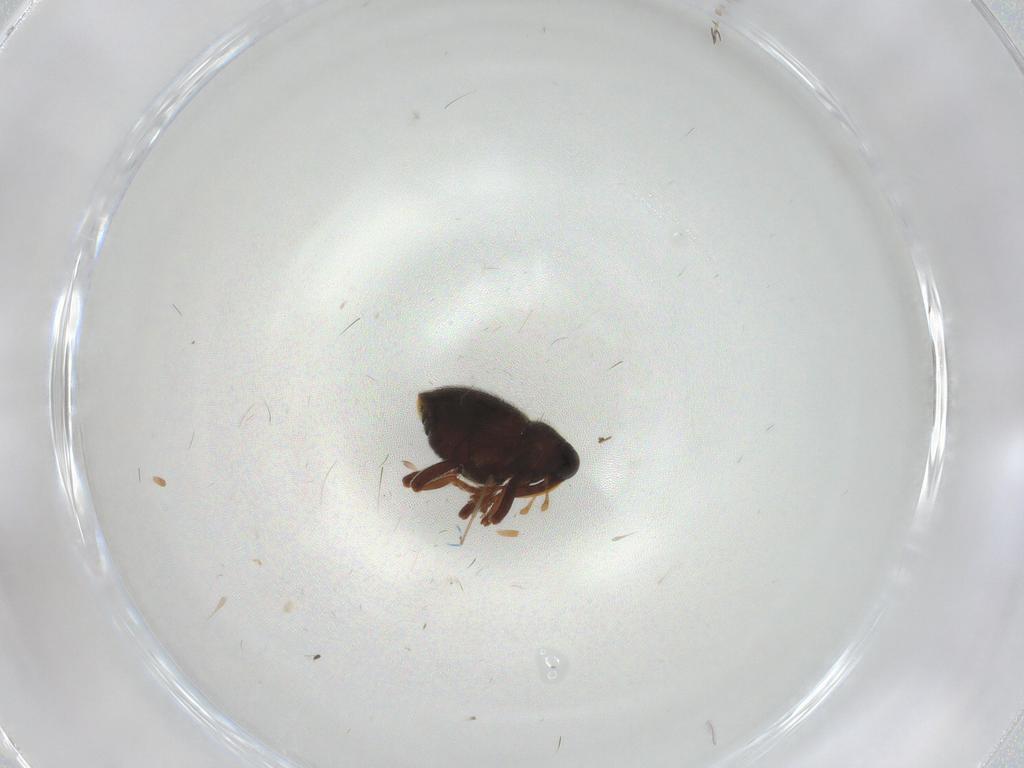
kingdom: Animalia
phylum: Arthropoda
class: Insecta
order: Coleoptera
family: Curculionidae
